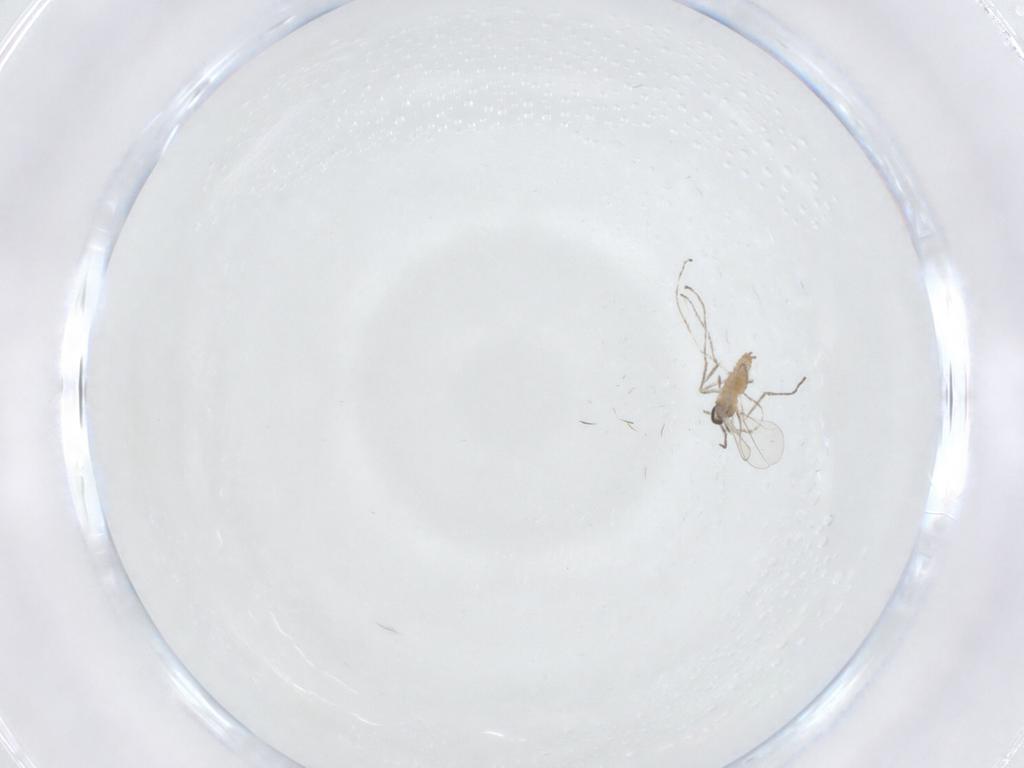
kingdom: Animalia
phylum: Arthropoda
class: Insecta
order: Diptera
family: Cecidomyiidae
